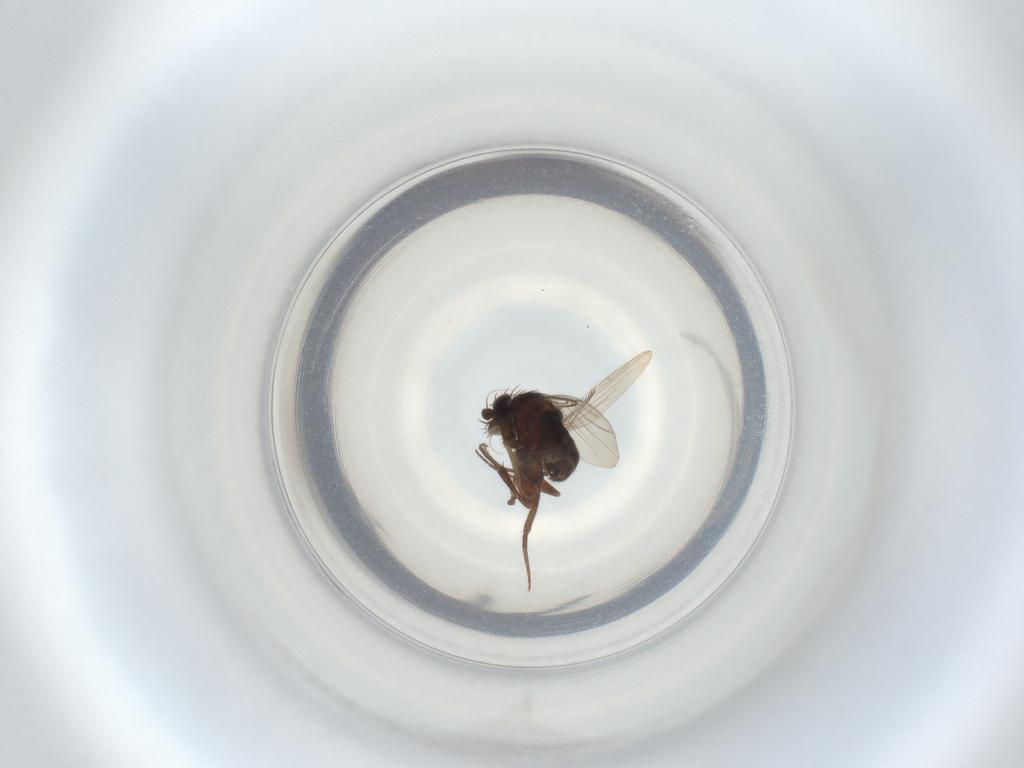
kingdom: Animalia
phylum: Arthropoda
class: Insecta
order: Diptera
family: Phoridae
